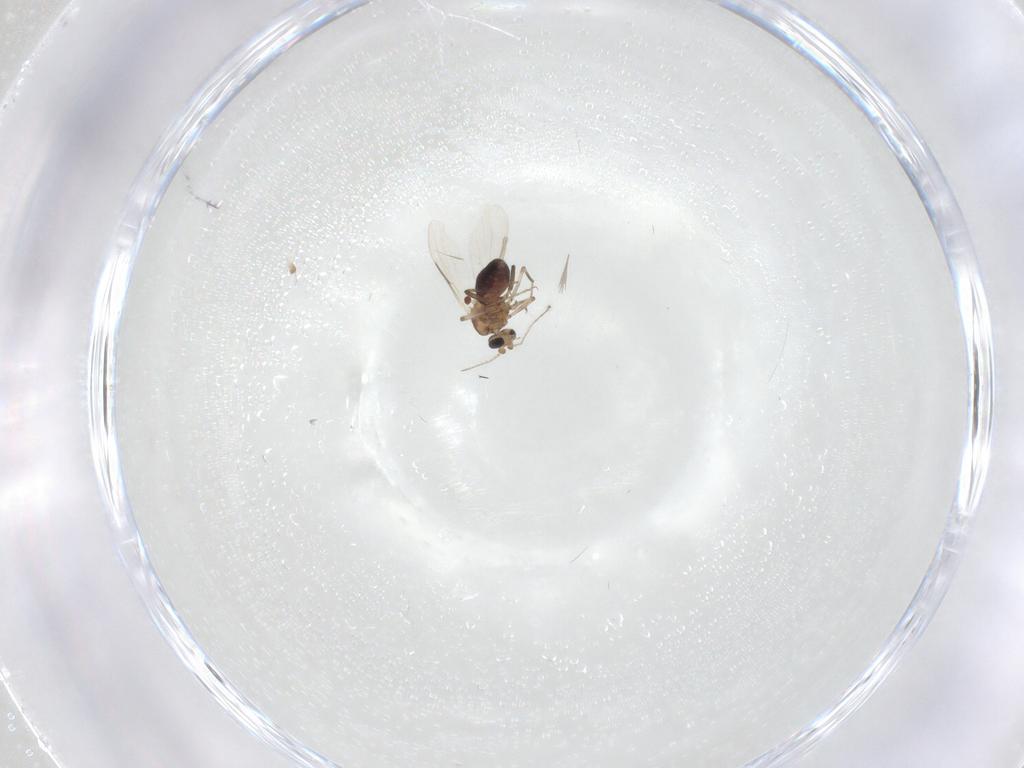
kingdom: Animalia
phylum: Arthropoda
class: Insecta
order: Diptera
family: Ceratopogonidae
